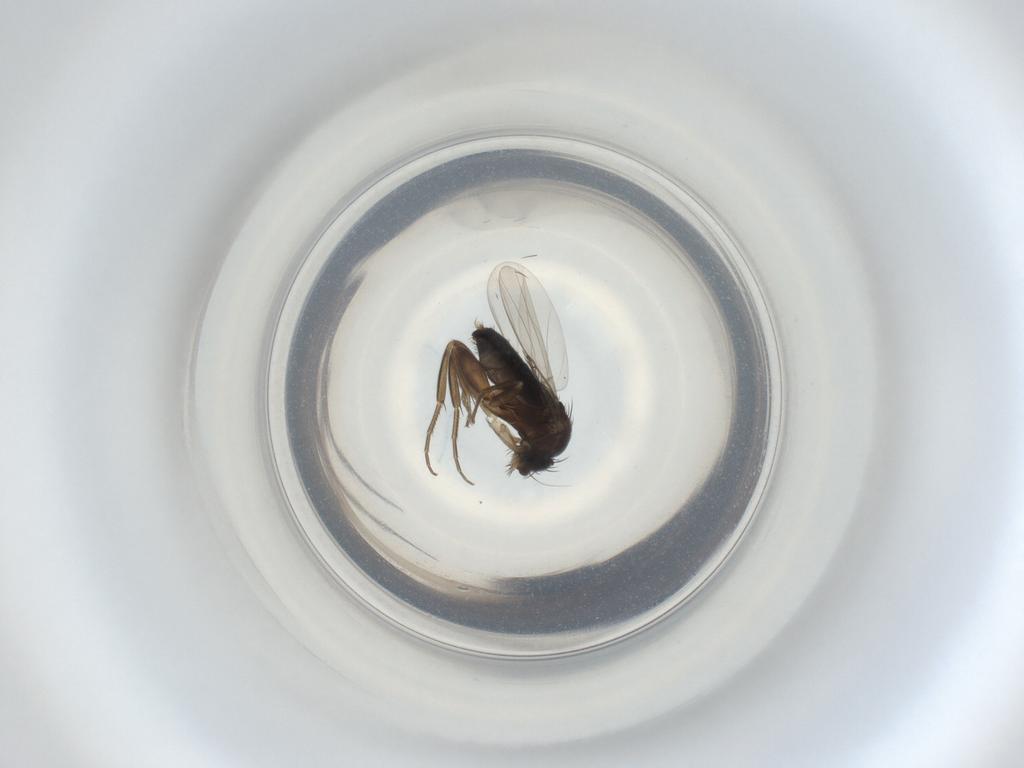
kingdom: Animalia
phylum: Arthropoda
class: Insecta
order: Diptera
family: Phoridae
